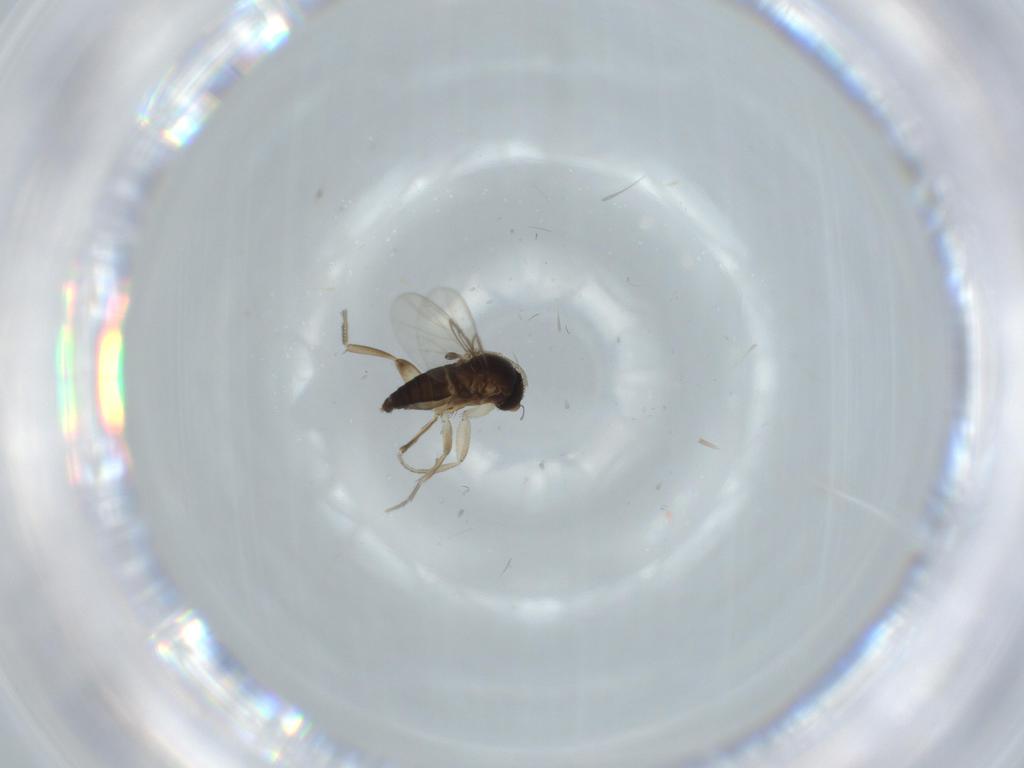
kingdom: Animalia
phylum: Arthropoda
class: Insecta
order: Diptera
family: Phoridae
